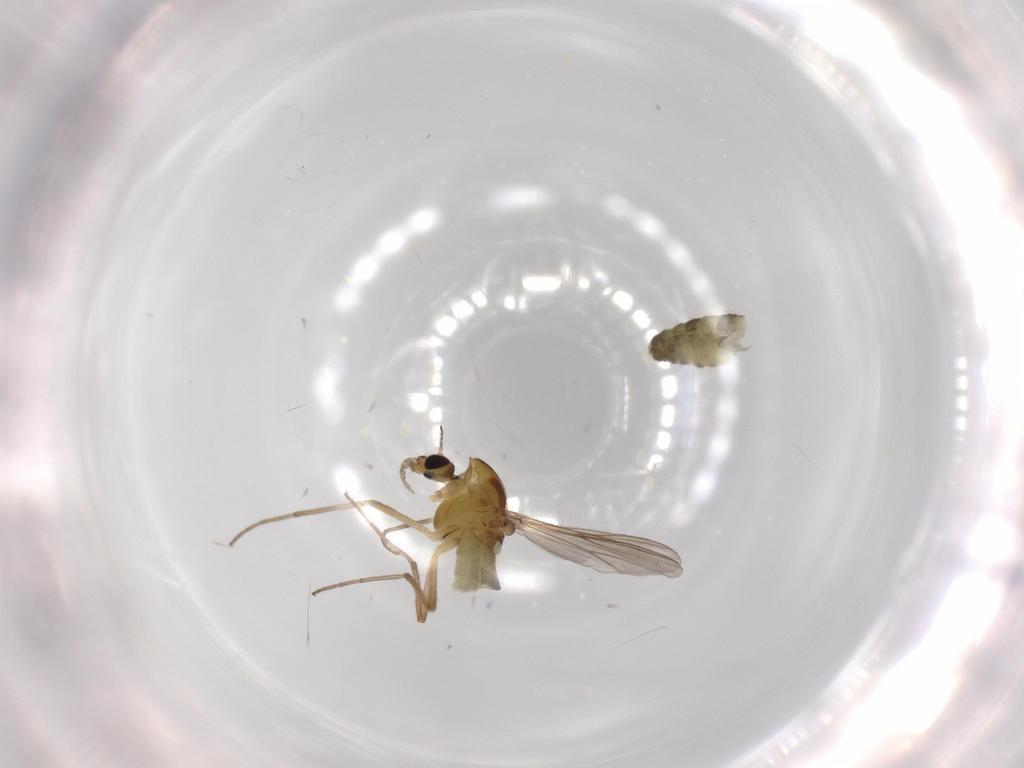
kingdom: Animalia
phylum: Arthropoda
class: Insecta
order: Diptera
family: Chironomidae
